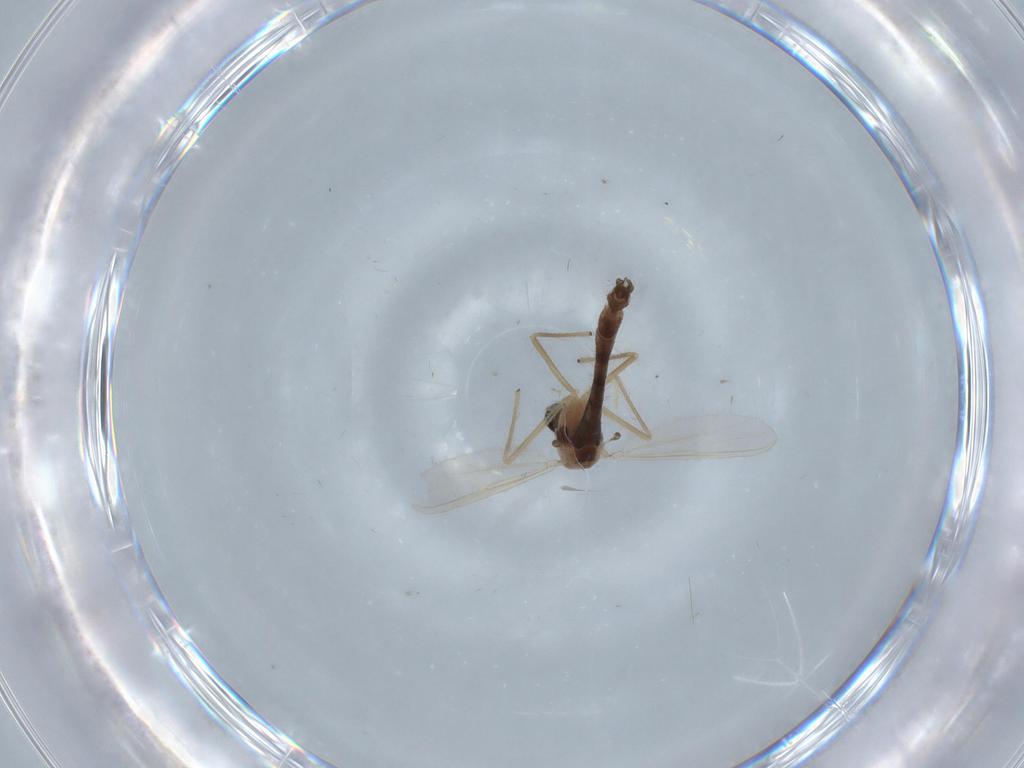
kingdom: Animalia
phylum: Arthropoda
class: Insecta
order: Diptera
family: Ceratopogonidae
